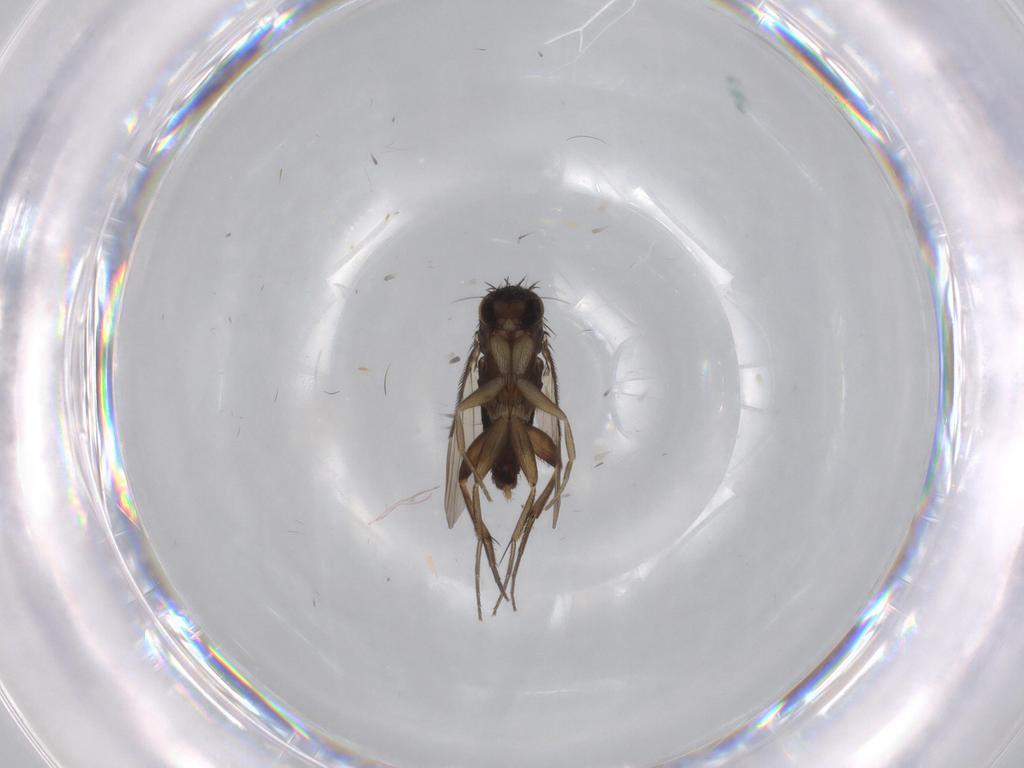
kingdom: Animalia
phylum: Arthropoda
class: Insecta
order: Diptera
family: Phoridae
